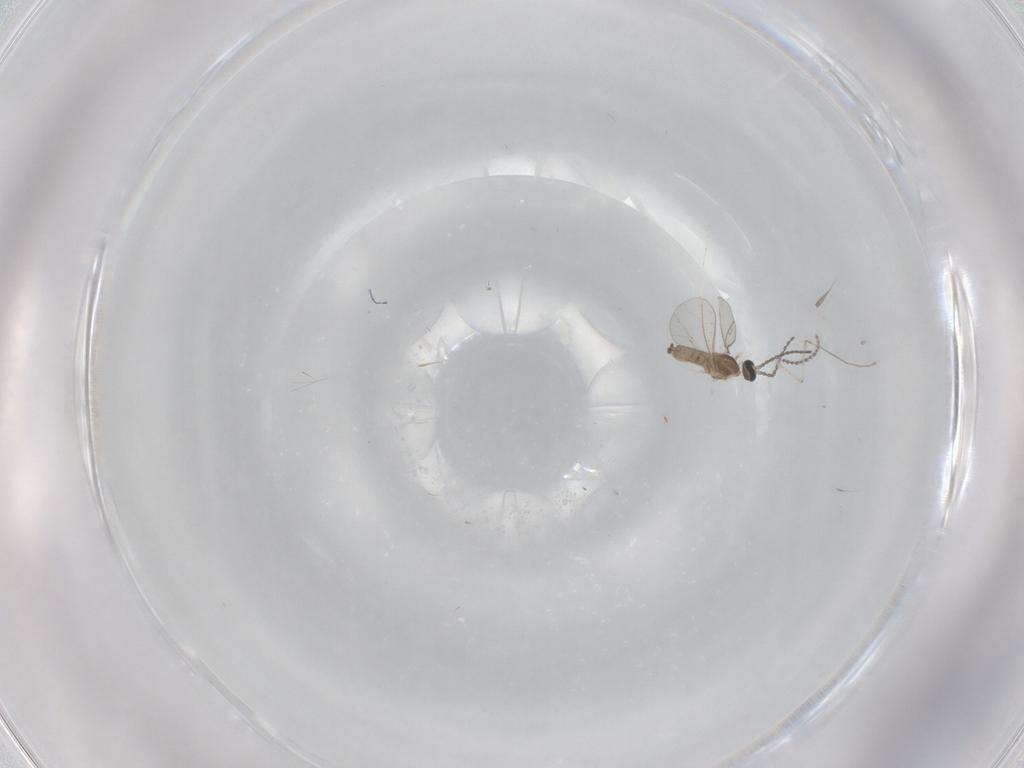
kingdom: Animalia
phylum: Arthropoda
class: Insecta
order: Diptera
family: Cecidomyiidae
